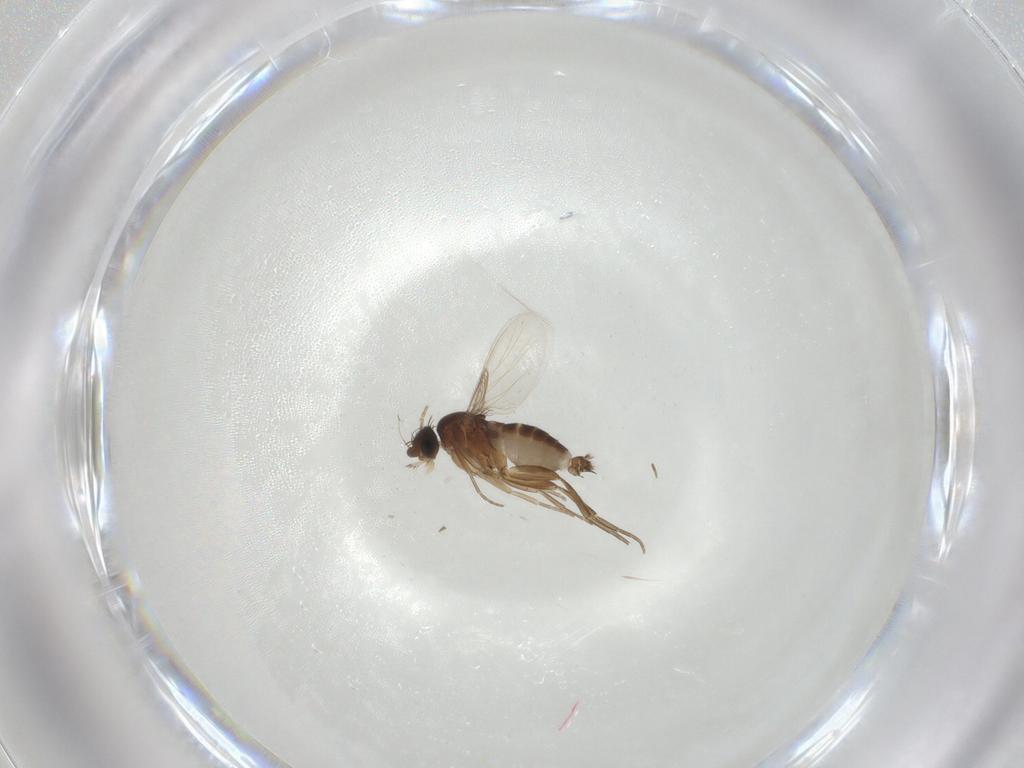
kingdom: Animalia
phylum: Arthropoda
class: Insecta
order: Diptera
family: Phoridae
